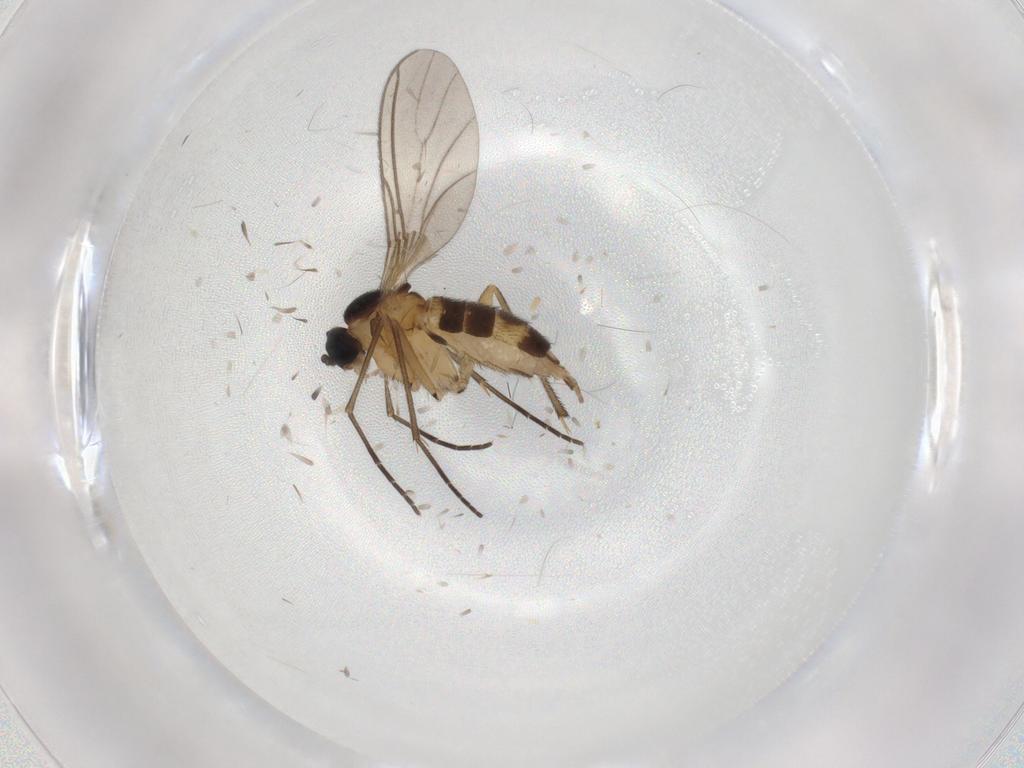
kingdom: Animalia
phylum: Arthropoda
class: Insecta
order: Diptera
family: Sciaridae
